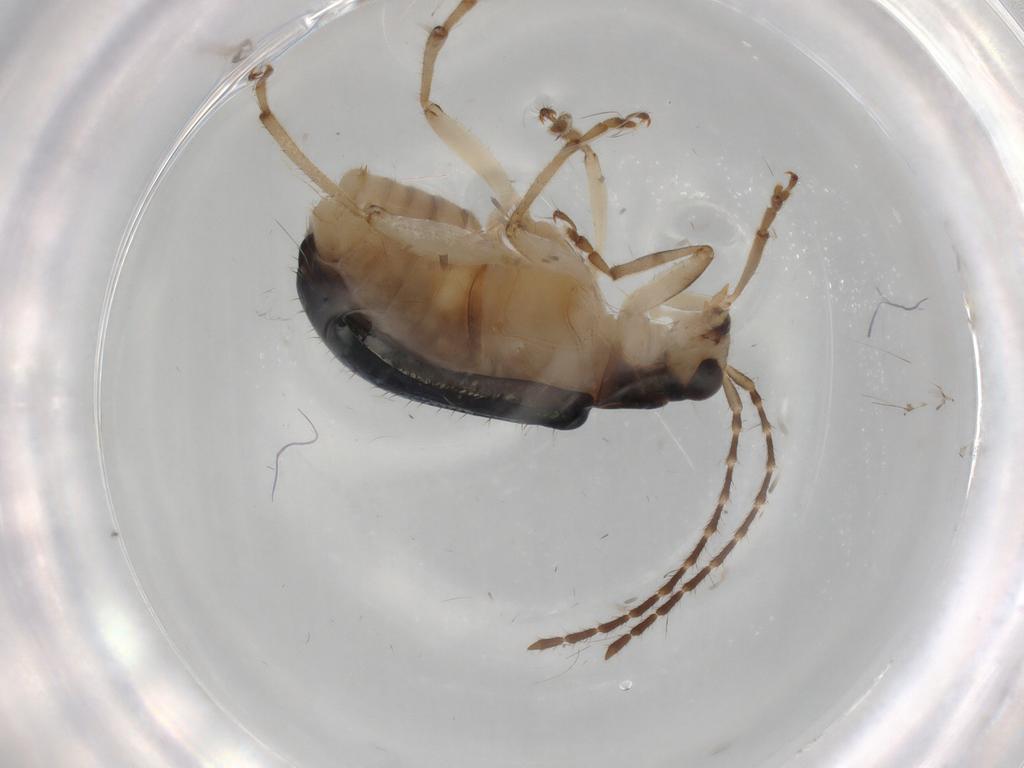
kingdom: Animalia
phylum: Arthropoda
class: Insecta
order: Coleoptera
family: Chrysomelidae
